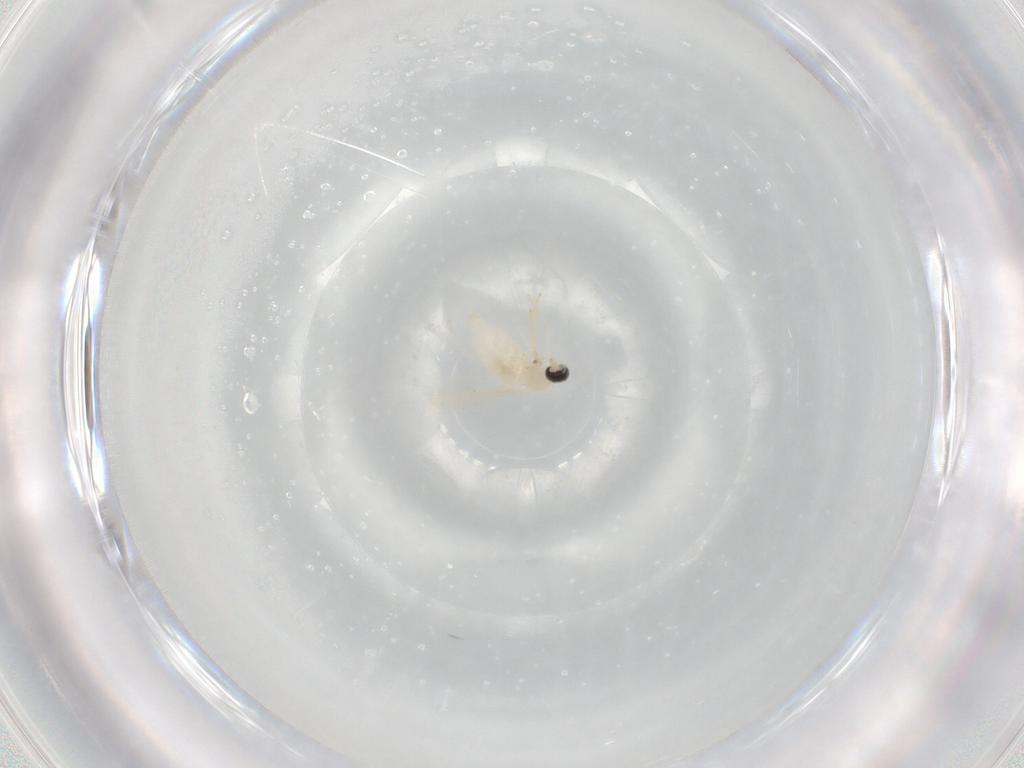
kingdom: Animalia
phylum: Arthropoda
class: Insecta
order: Diptera
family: Cecidomyiidae
